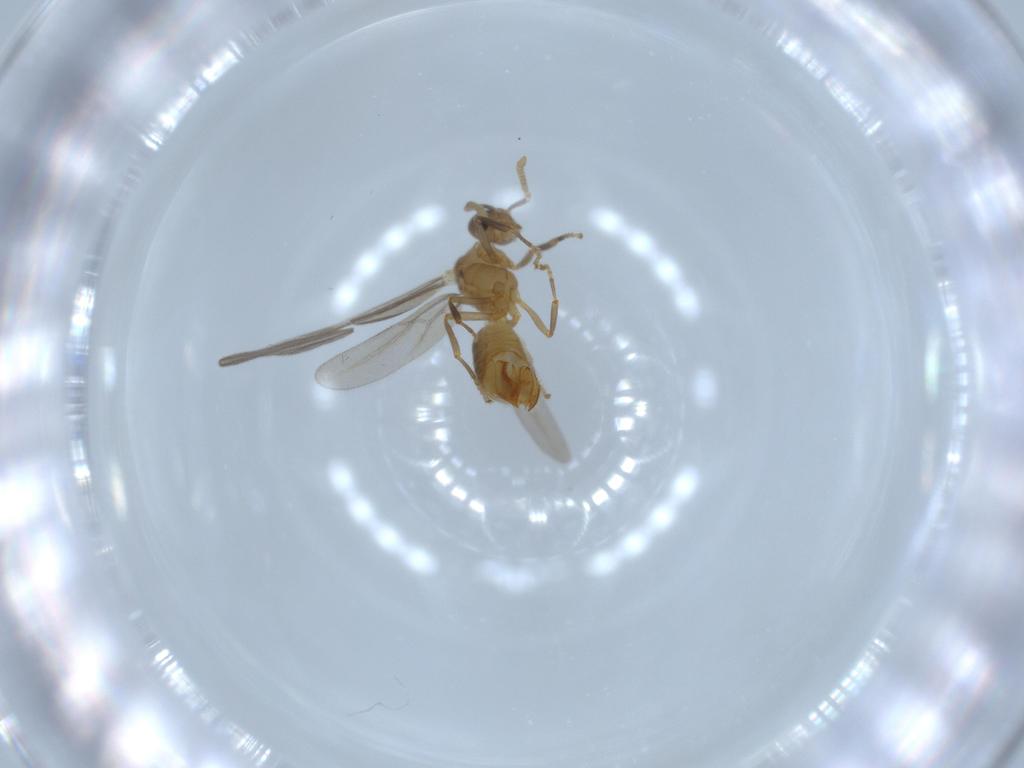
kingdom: Animalia
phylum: Arthropoda
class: Insecta
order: Hymenoptera
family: Formicidae
